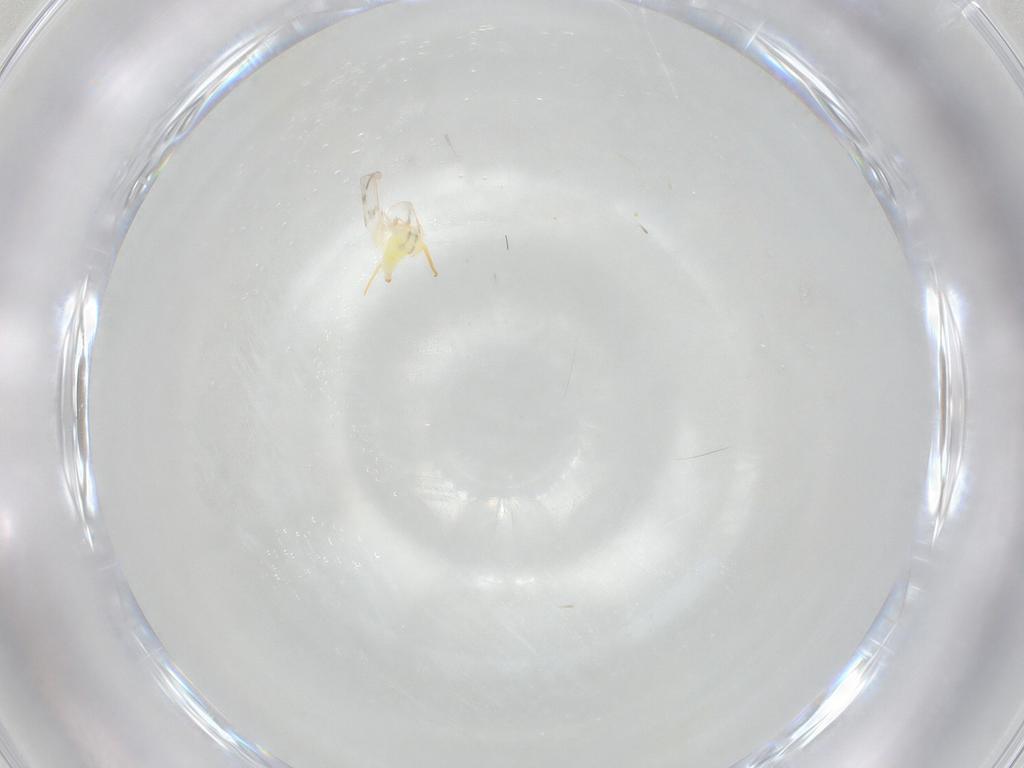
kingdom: Animalia
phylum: Arthropoda
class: Insecta
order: Hemiptera
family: Aleyrodidae
